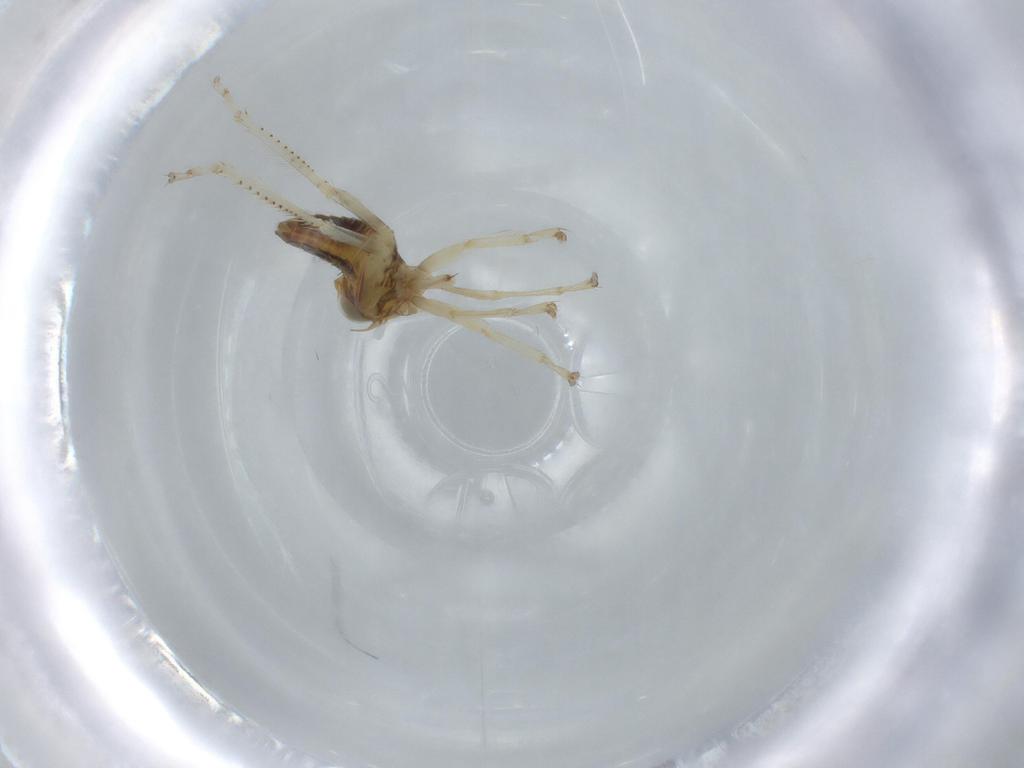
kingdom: Animalia
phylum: Arthropoda
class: Insecta
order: Hemiptera
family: Cicadellidae
